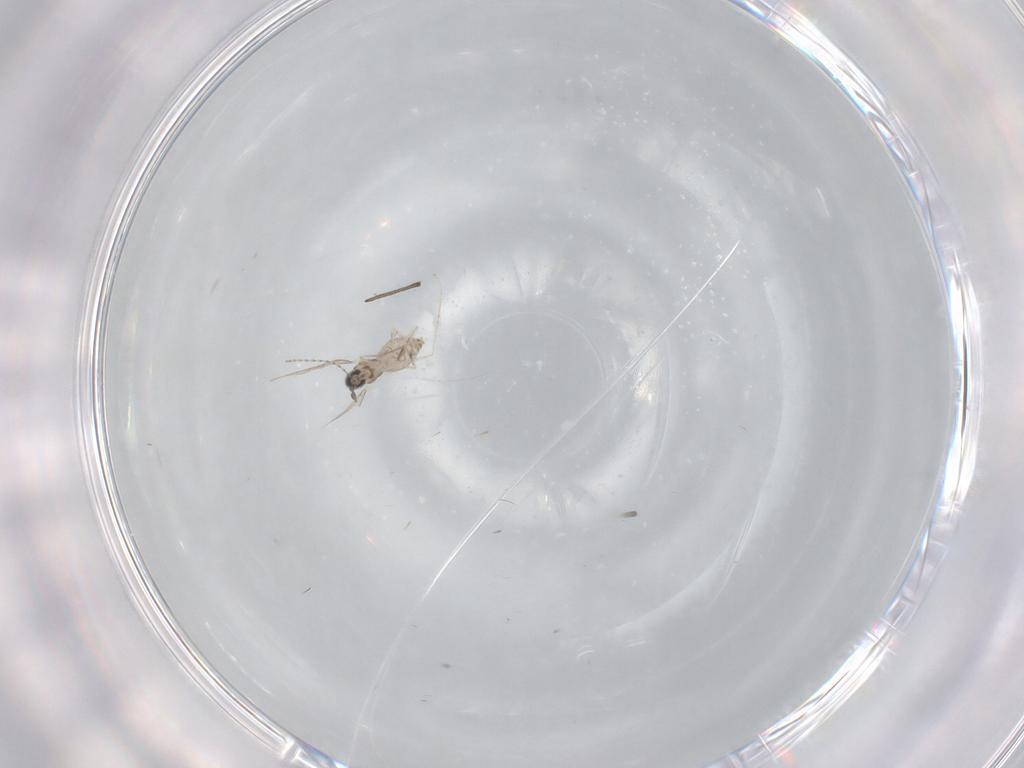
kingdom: Animalia
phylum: Arthropoda
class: Insecta
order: Diptera
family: Cecidomyiidae
